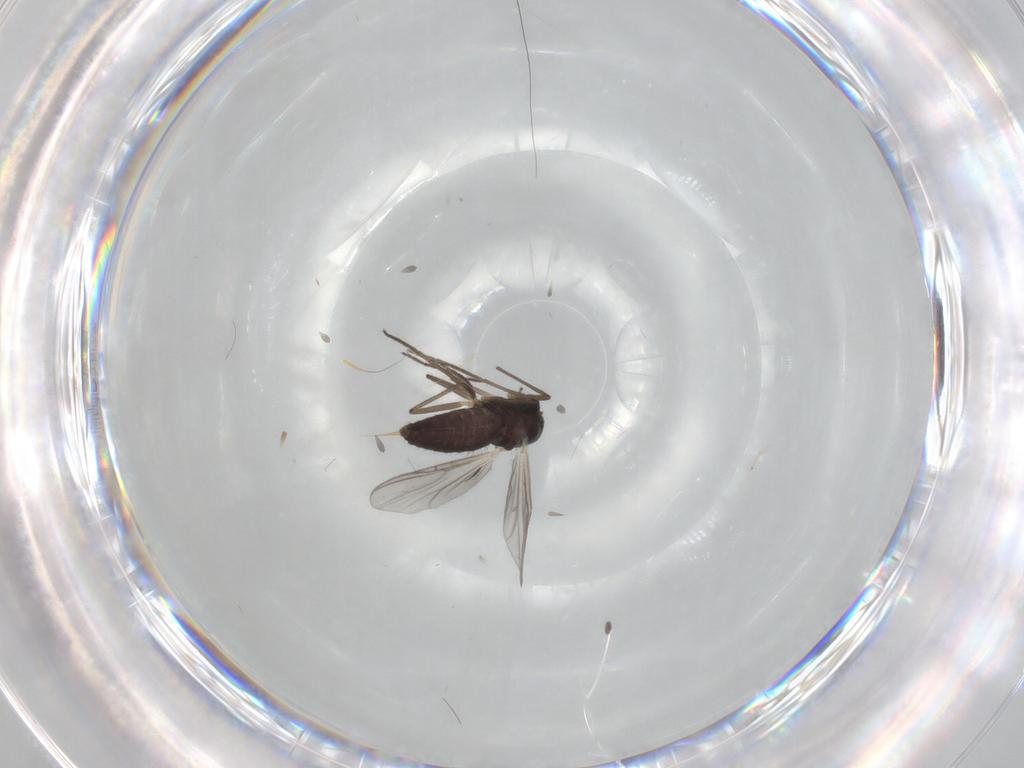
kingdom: Animalia
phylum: Arthropoda
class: Insecta
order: Diptera
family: Chironomidae
